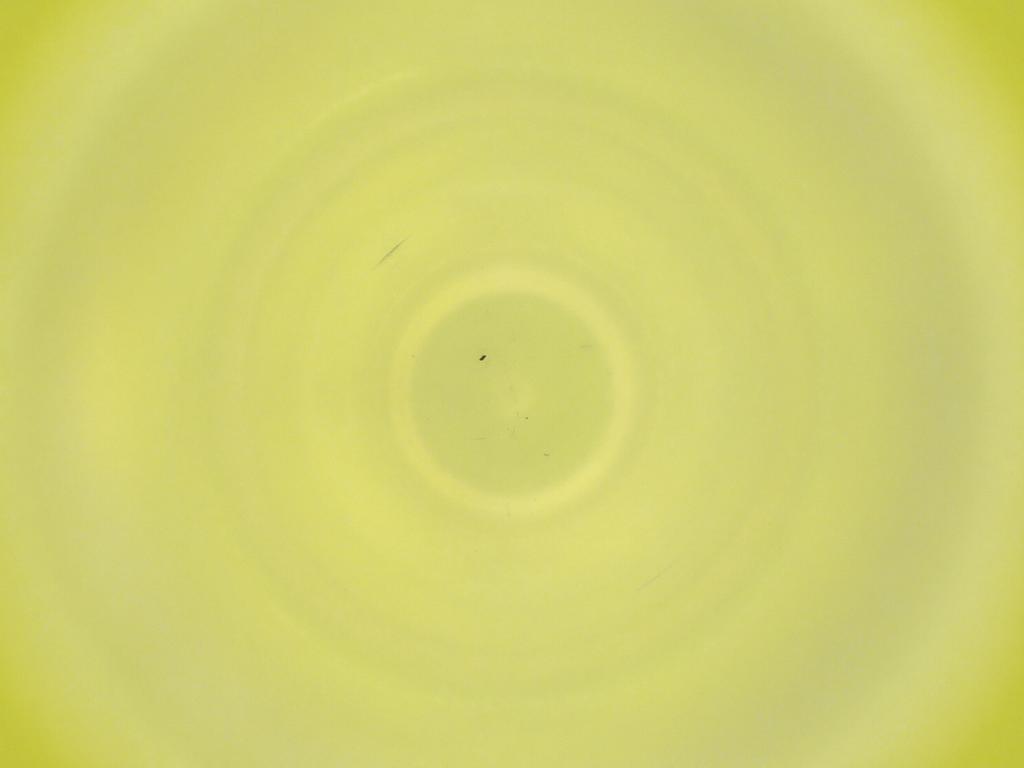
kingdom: Animalia
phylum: Arthropoda
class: Insecta
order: Diptera
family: Cecidomyiidae
